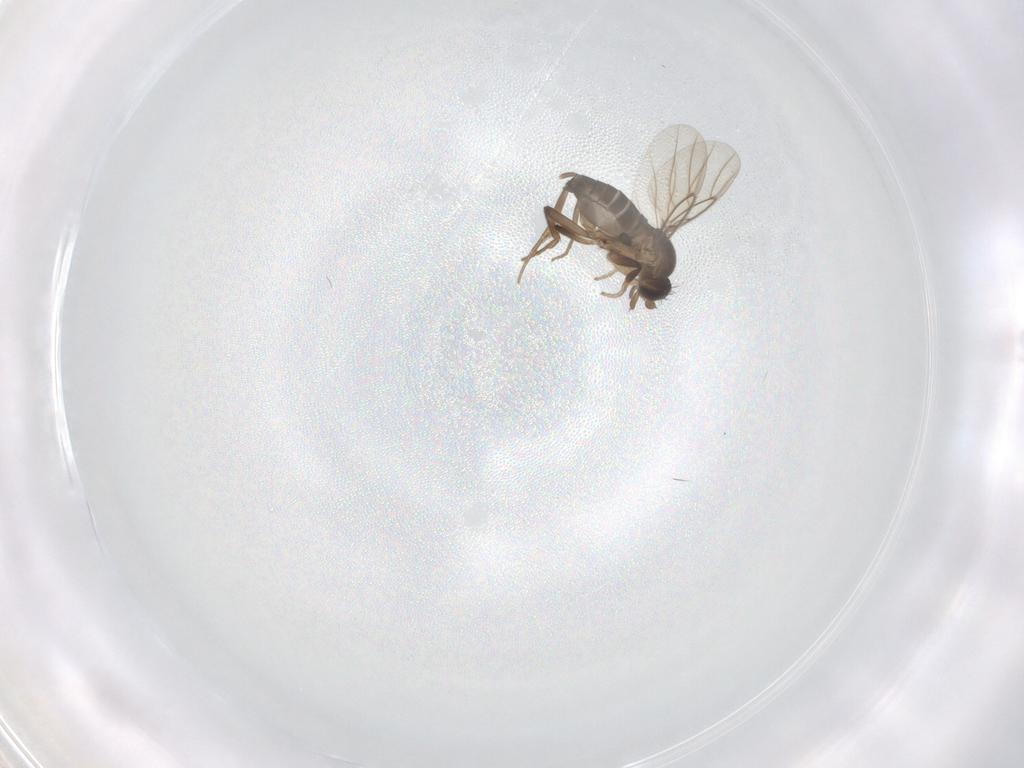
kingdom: Animalia
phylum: Arthropoda
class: Insecta
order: Diptera
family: Phoridae
